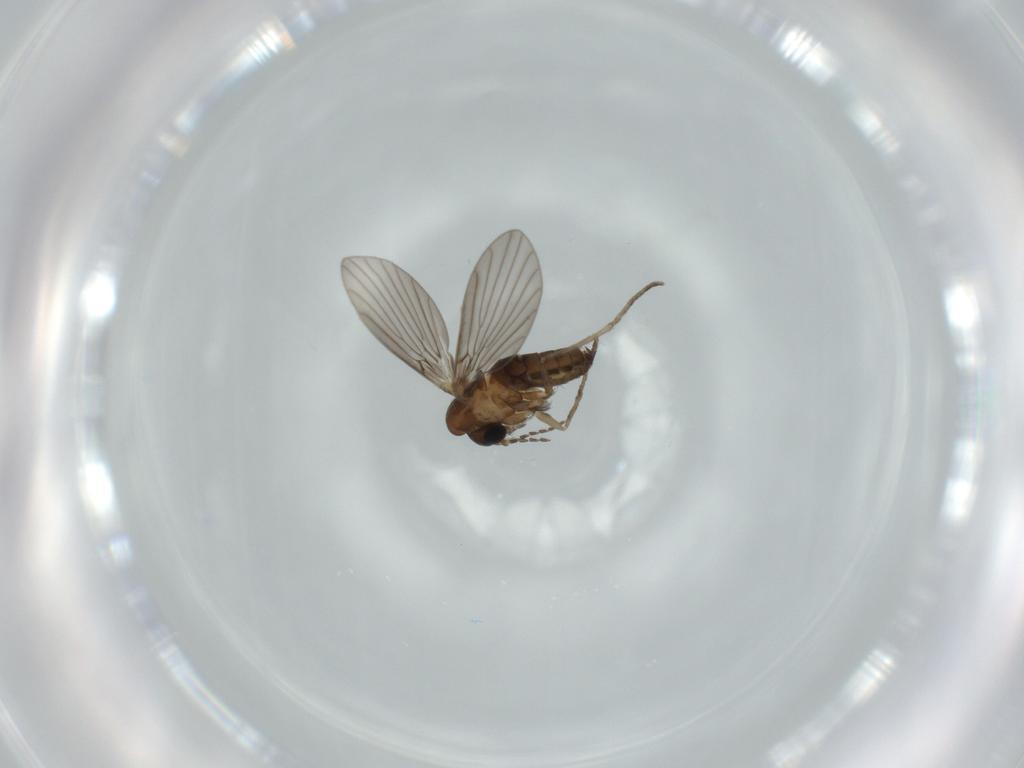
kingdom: Animalia
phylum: Arthropoda
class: Insecta
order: Diptera
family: Psychodidae
